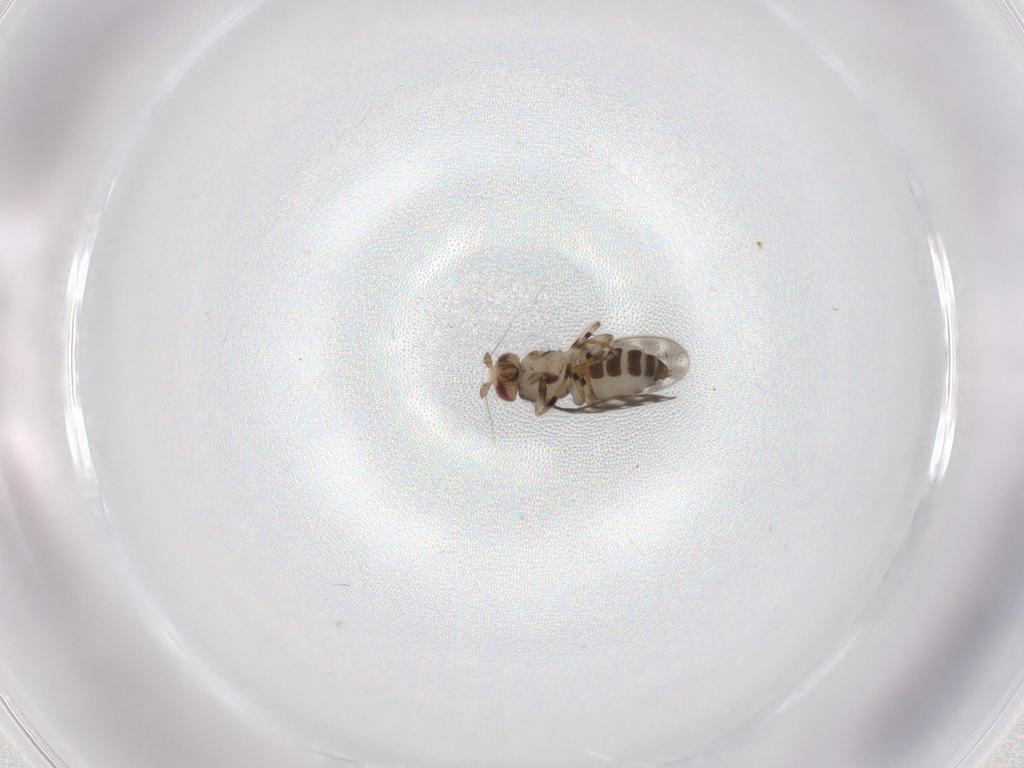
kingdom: Animalia
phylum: Arthropoda
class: Insecta
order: Diptera
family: Sphaeroceridae
